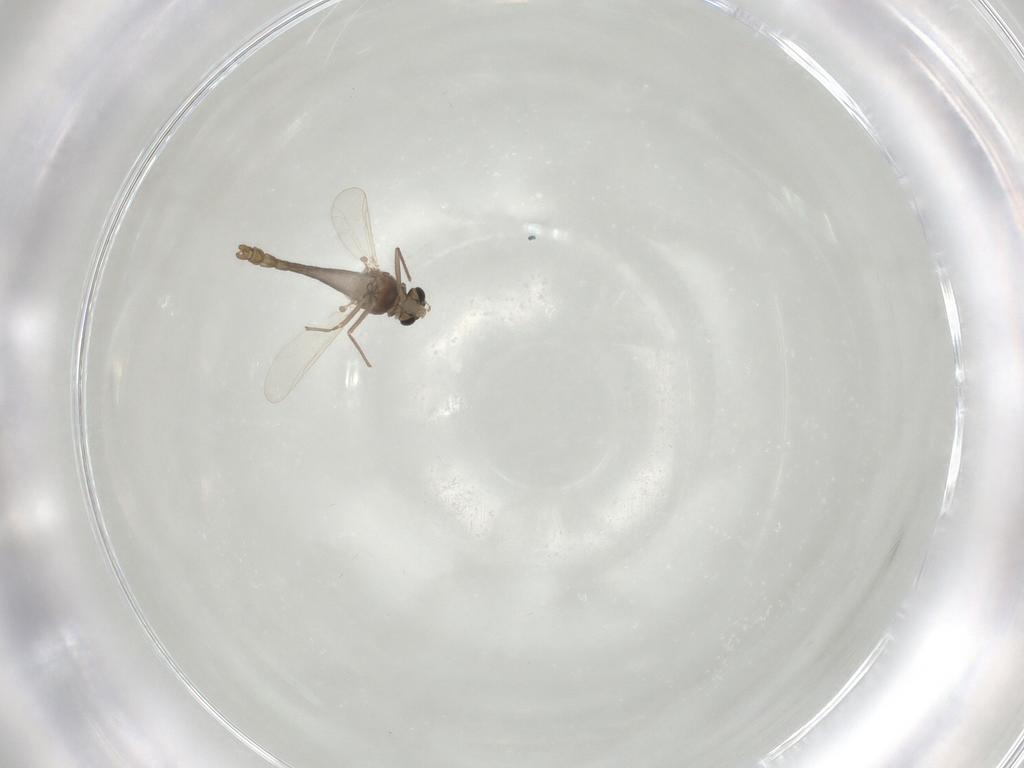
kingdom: Animalia
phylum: Arthropoda
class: Insecta
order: Diptera
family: Chironomidae
